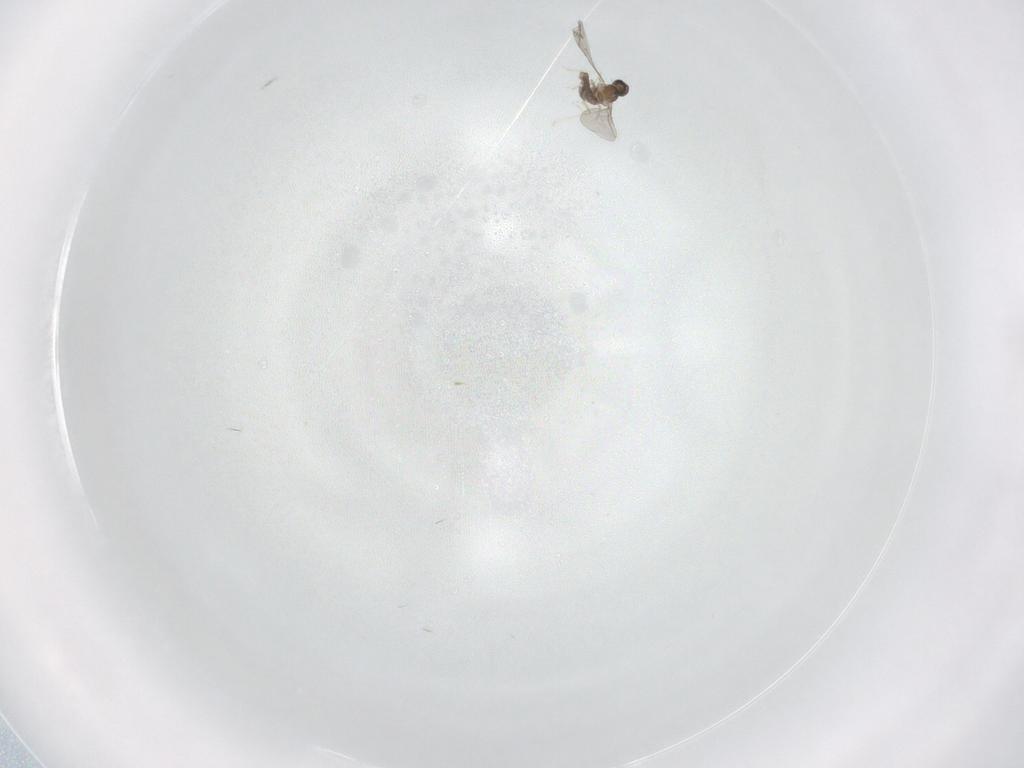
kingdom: Animalia
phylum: Arthropoda
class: Insecta
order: Diptera
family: Cecidomyiidae
